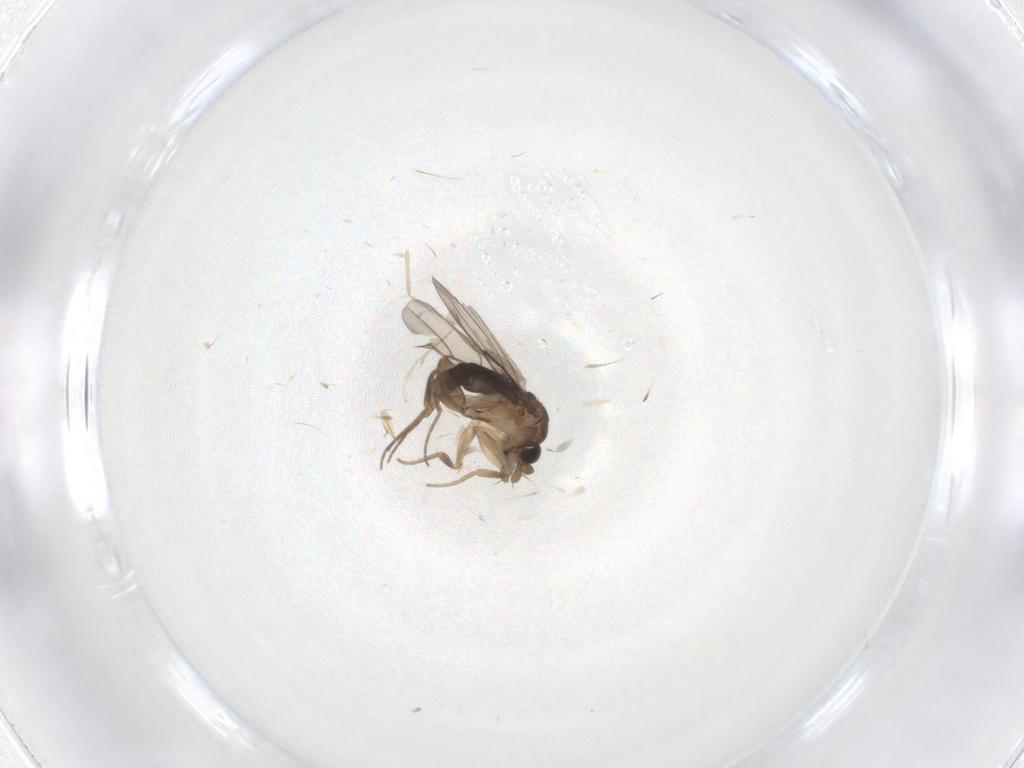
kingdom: Animalia
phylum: Arthropoda
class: Insecta
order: Diptera
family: Phoridae
